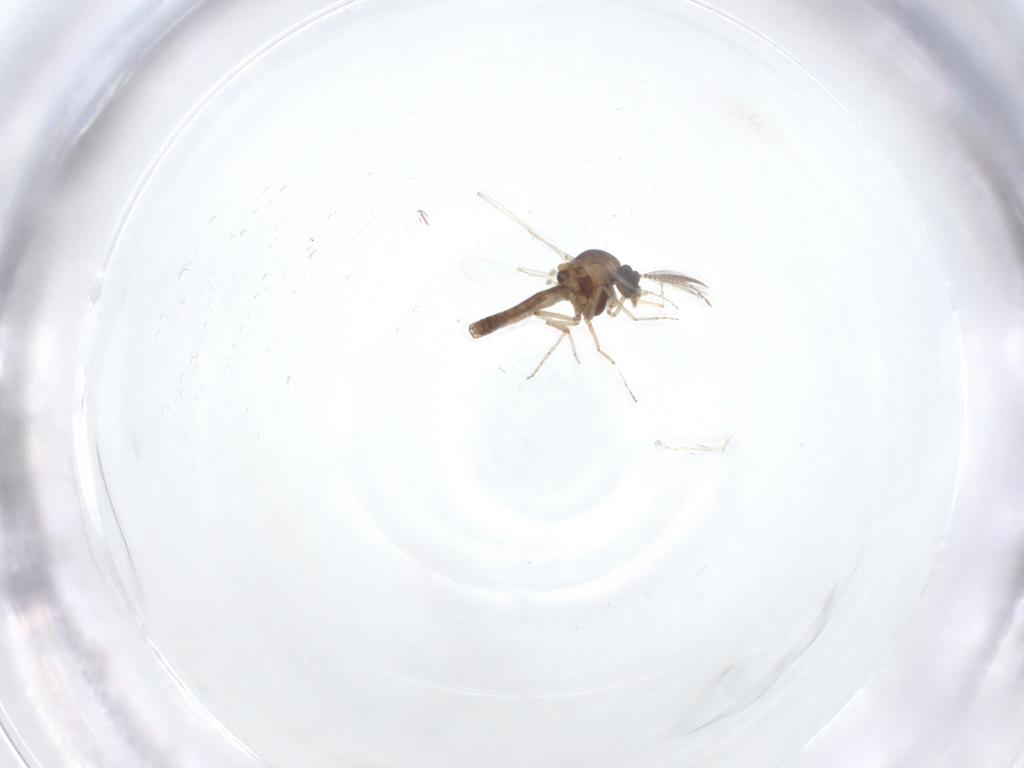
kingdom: Animalia
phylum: Arthropoda
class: Insecta
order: Diptera
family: Ceratopogonidae
